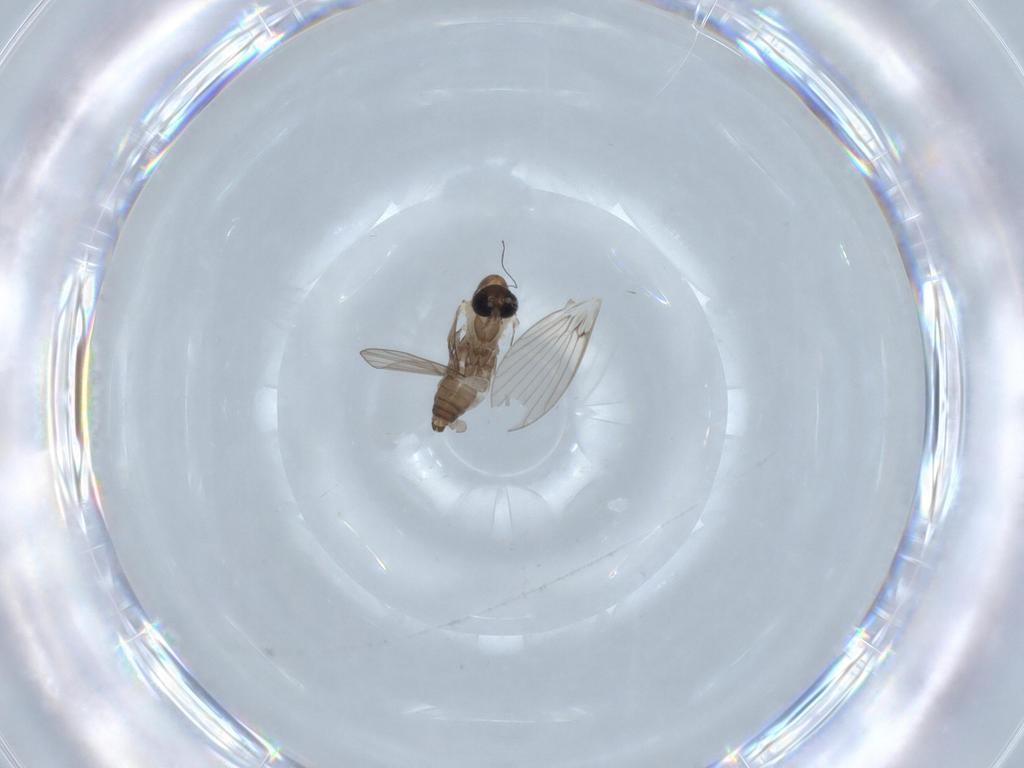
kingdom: Animalia
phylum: Arthropoda
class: Insecta
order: Diptera
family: Psychodidae
